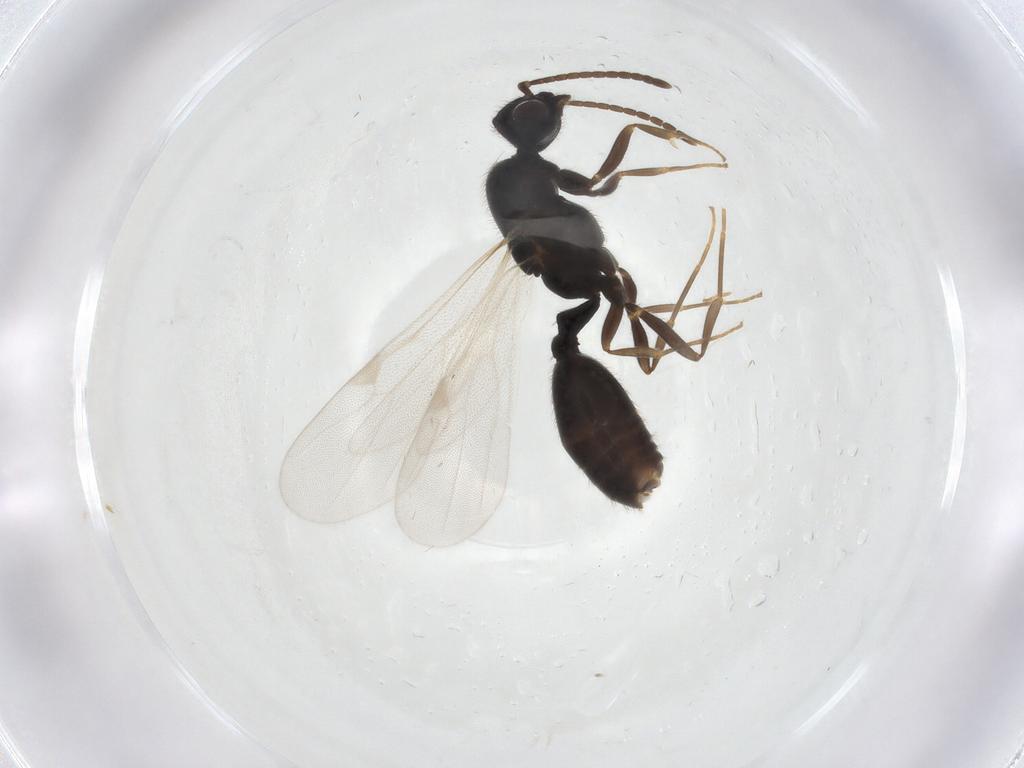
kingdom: Animalia
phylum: Arthropoda
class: Insecta
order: Hymenoptera
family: Formicidae
